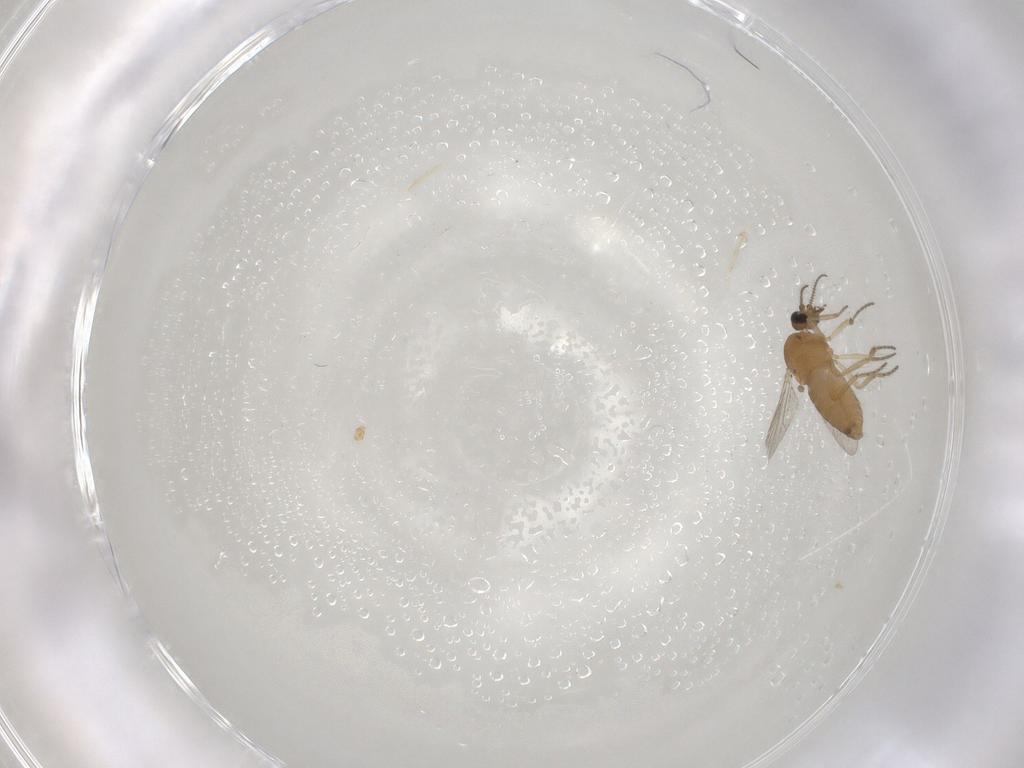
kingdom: Animalia
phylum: Arthropoda
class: Insecta
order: Diptera
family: Ceratopogonidae
